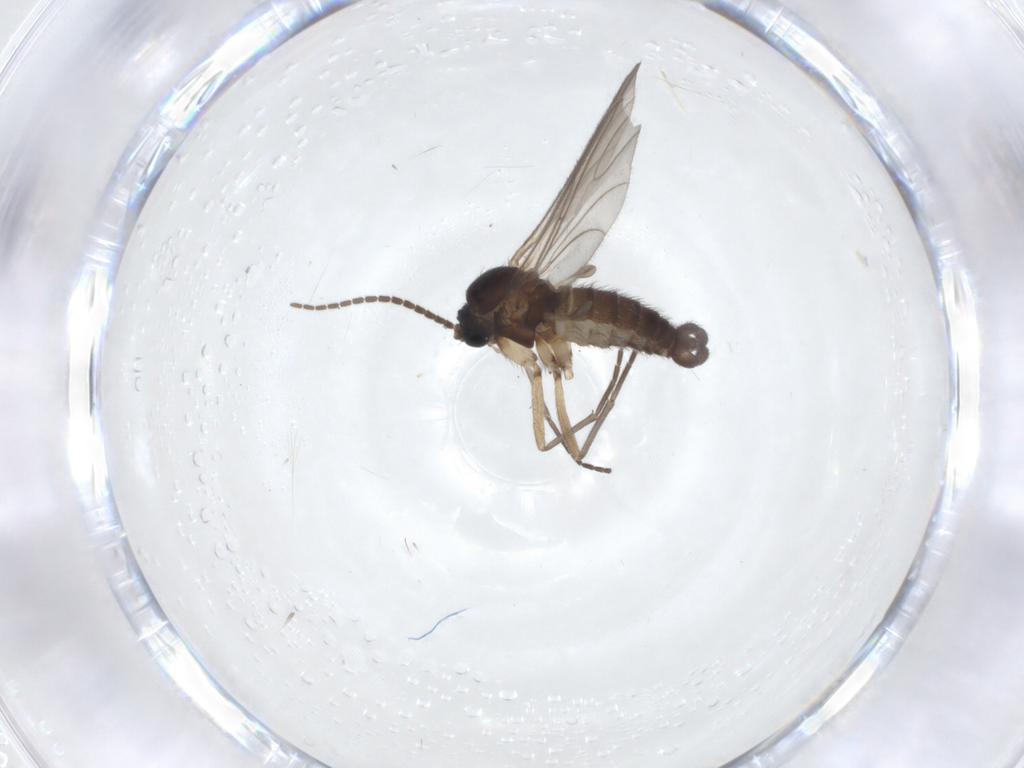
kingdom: Animalia
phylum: Arthropoda
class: Insecta
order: Diptera
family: Sciaridae
